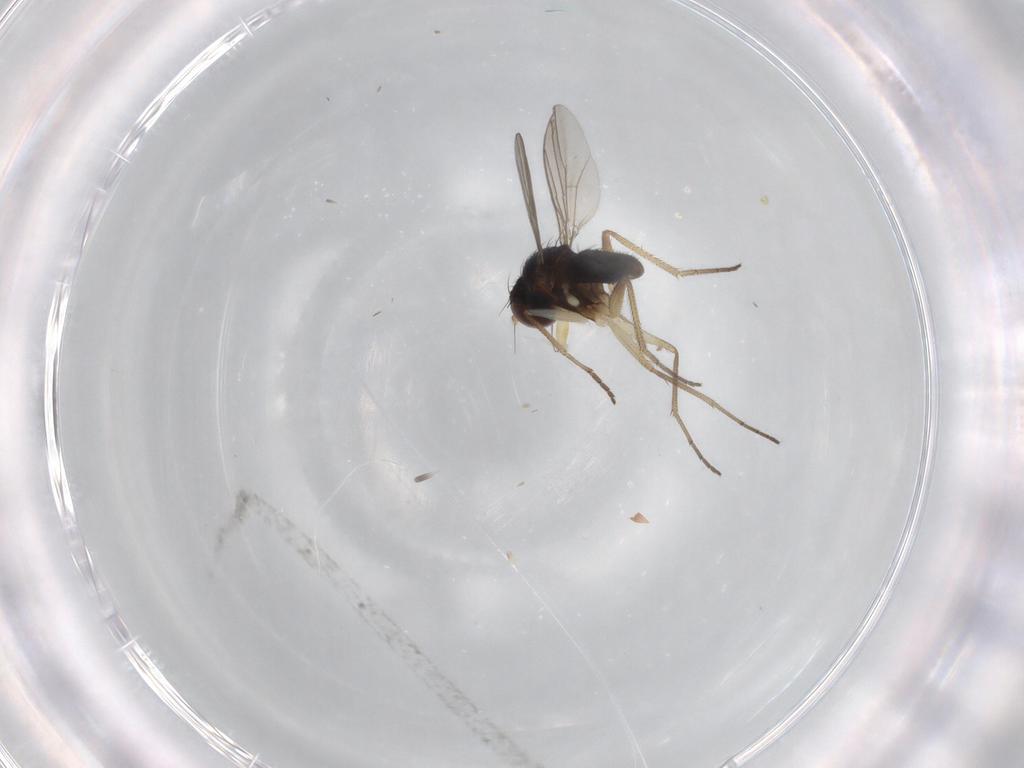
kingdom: Animalia
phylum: Arthropoda
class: Insecta
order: Diptera
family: Dolichopodidae
